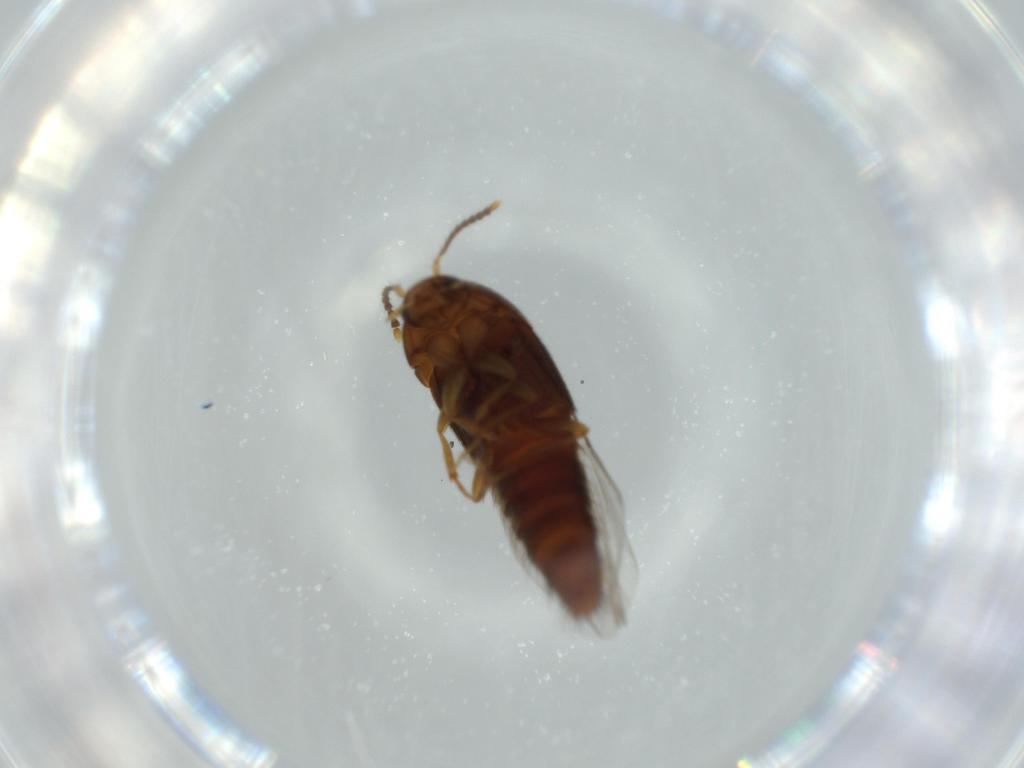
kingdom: Animalia
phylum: Arthropoda
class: Insecta
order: Coleoptera
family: Staphylinidae
